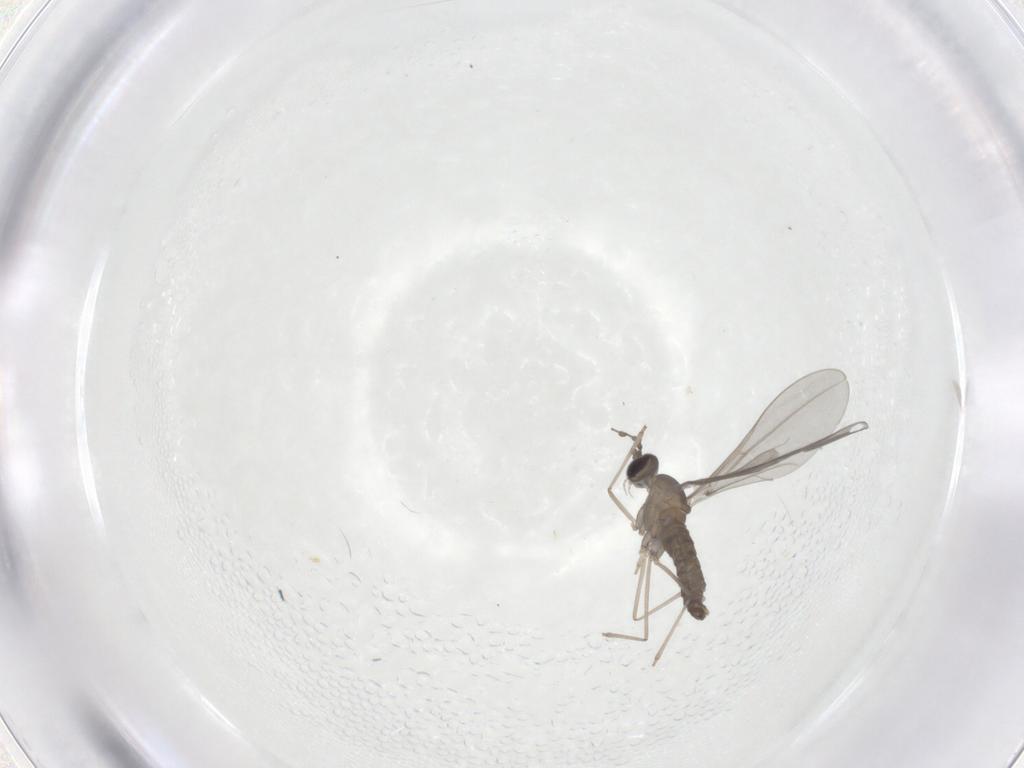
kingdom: Animalia
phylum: Arthropoda
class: Insecta
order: Diptera
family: Cecidomyiidae
